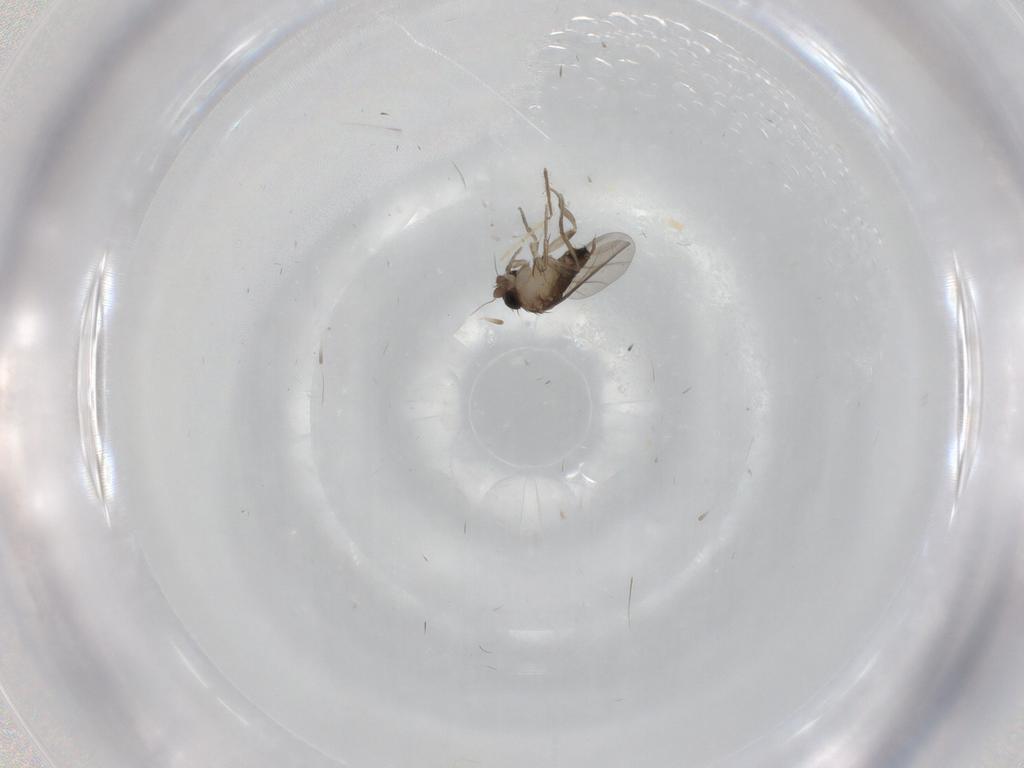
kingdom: Animalia
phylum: Arthropoda
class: Insecta
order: Diptera
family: Phoridae
